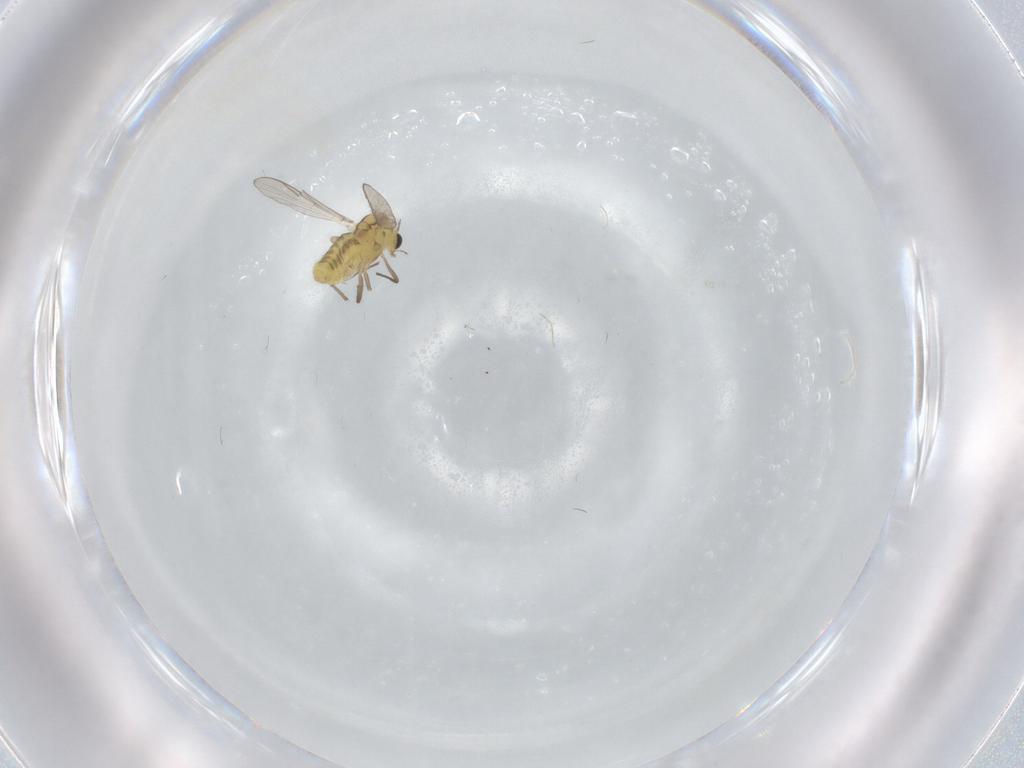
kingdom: Animalia
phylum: Arthropoda
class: Insecta
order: Diptera
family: Chironomidae
